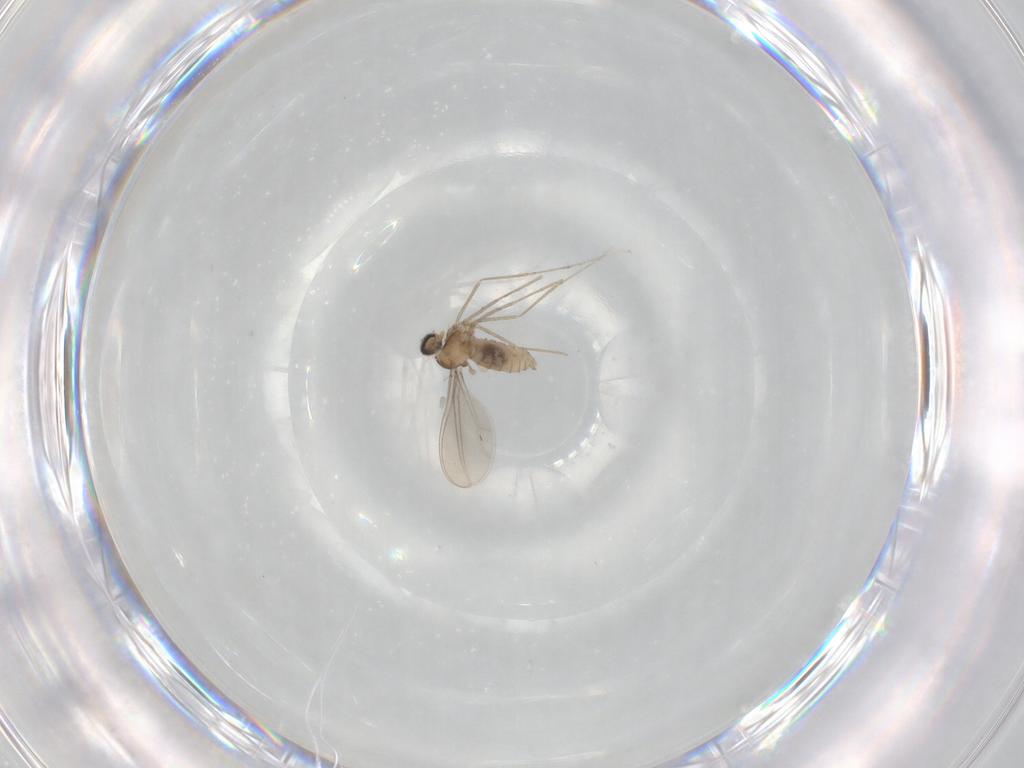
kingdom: Animalia
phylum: Arthropoda
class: Insecta
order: Diptera
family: Cecidomyiidae
